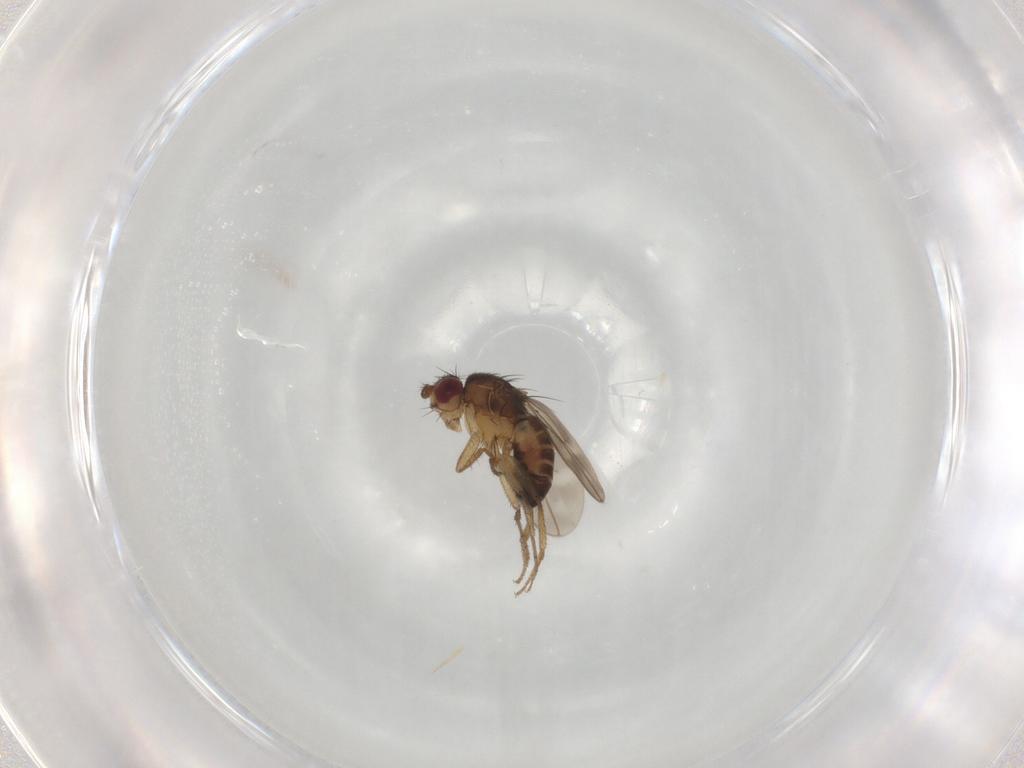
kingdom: Animalia
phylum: Arthropoda
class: Insecta
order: Diptera
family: Sphaeroceridae
